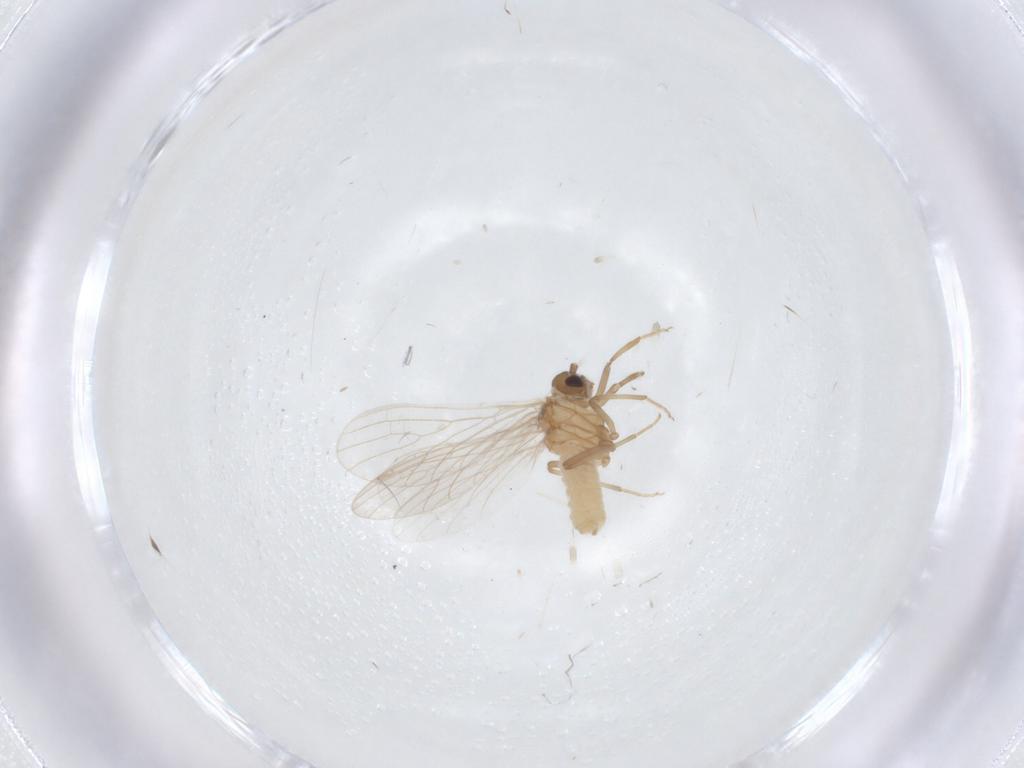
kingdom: Animalia
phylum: Arthropoda
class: Insecta
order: Neuroptera
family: Coniopterygidae
